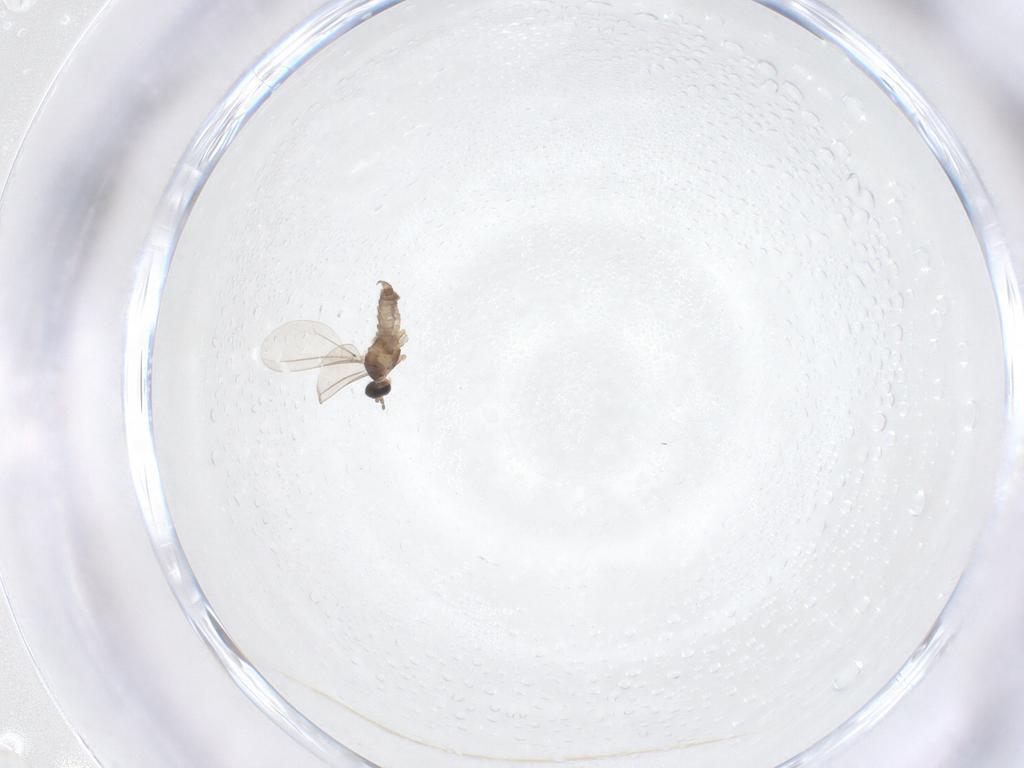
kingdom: Animalia
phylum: Arthropoda
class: Insecta
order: Diptera
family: Cecidomyiidae
